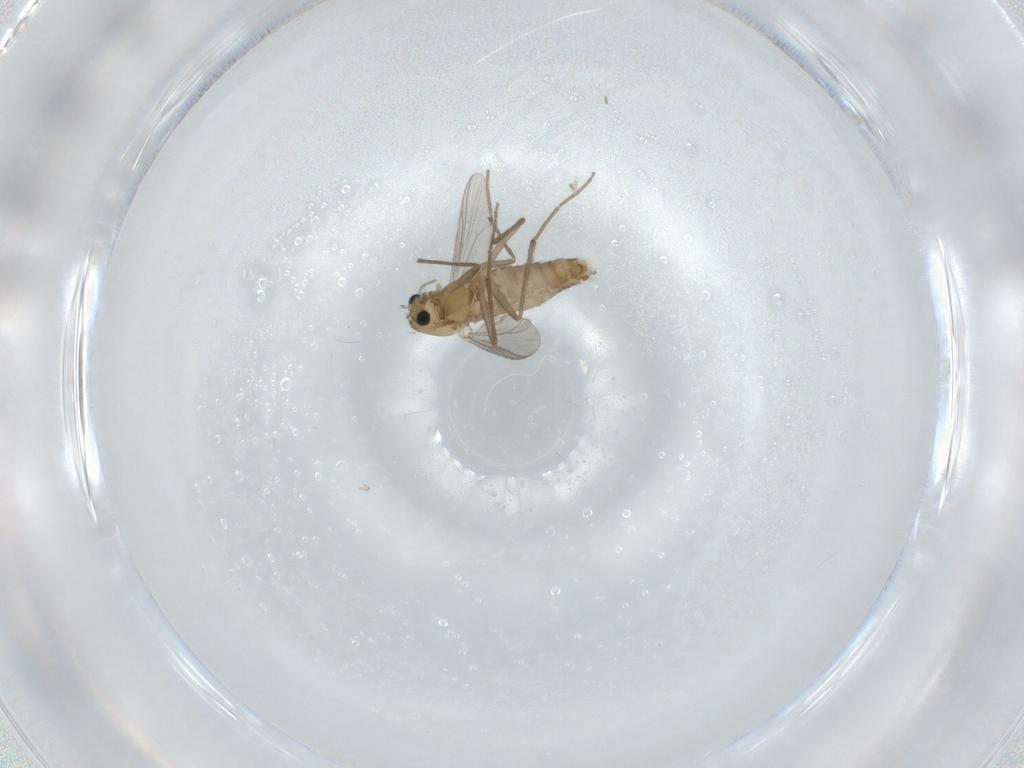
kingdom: Animalia
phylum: Arthropoda
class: Insecta
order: Diptera
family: Chironomidae
